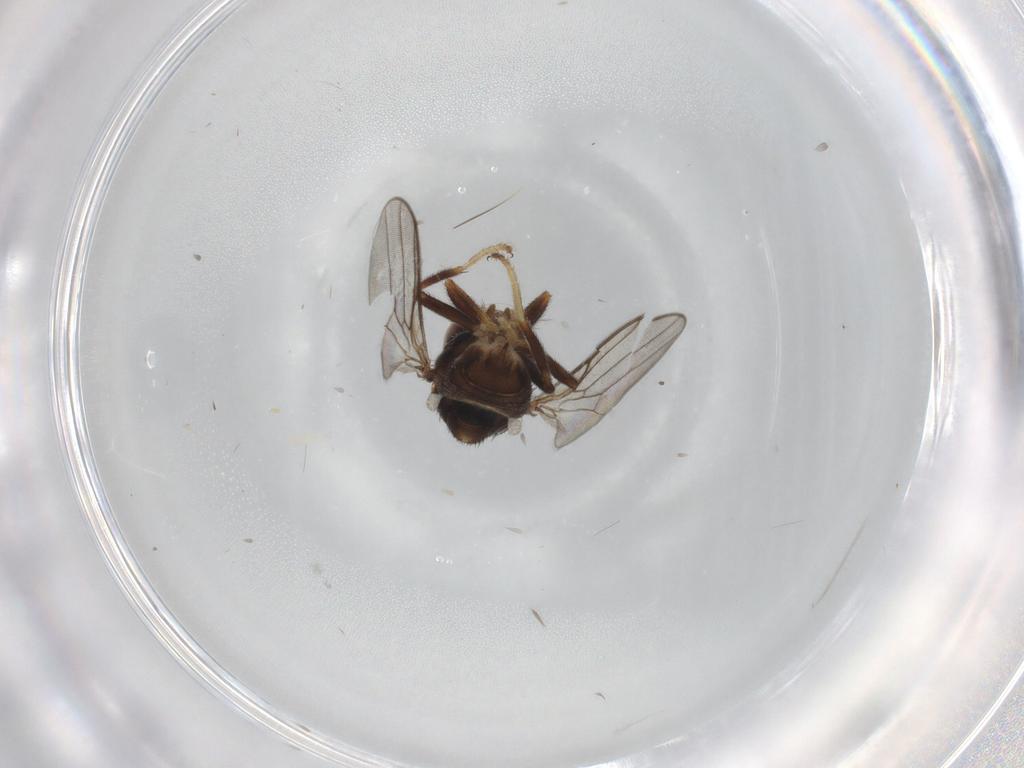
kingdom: Animalia
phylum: Arthropoda
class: Insecta
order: Diptera
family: Chloropidae
